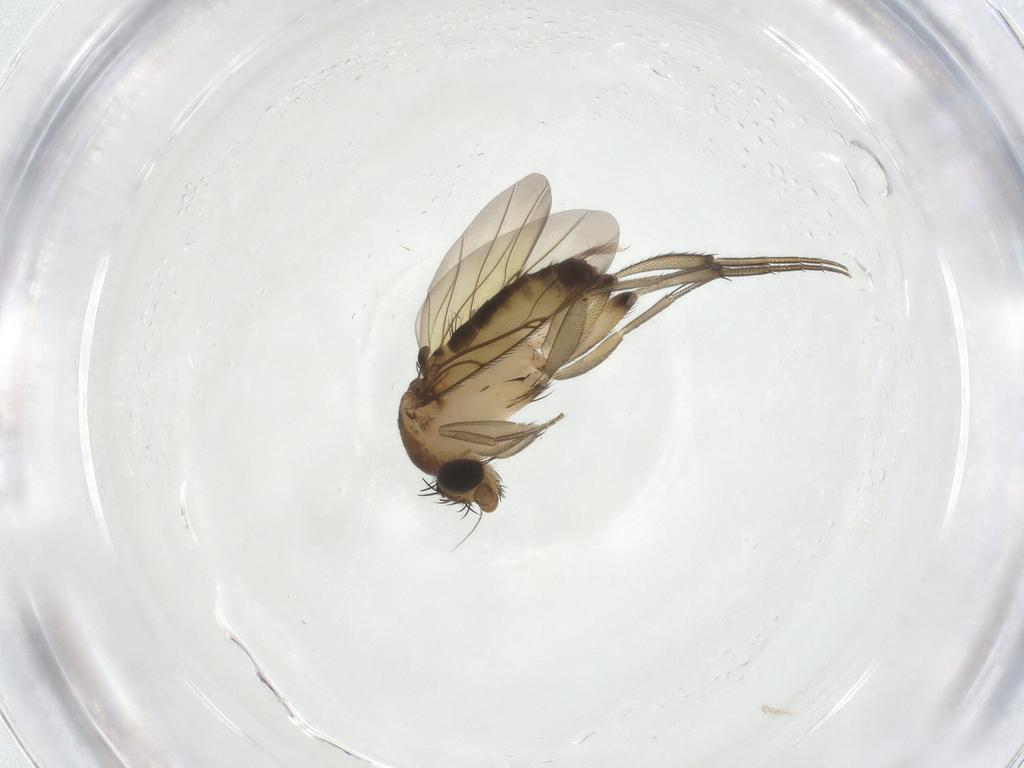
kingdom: Animalia
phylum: Arthropoda
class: Insecta
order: Diptera
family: Phoridae
